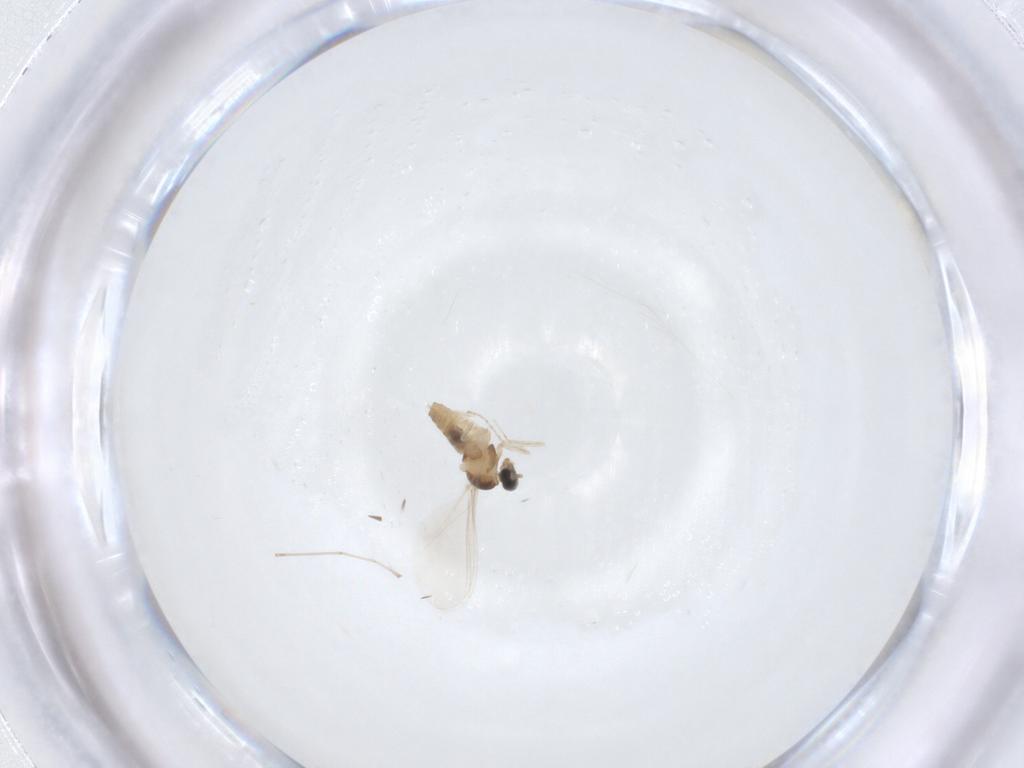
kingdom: Animalia
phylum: Arthropoda
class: Insecta
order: Diptera
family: Cecidomyiidae
